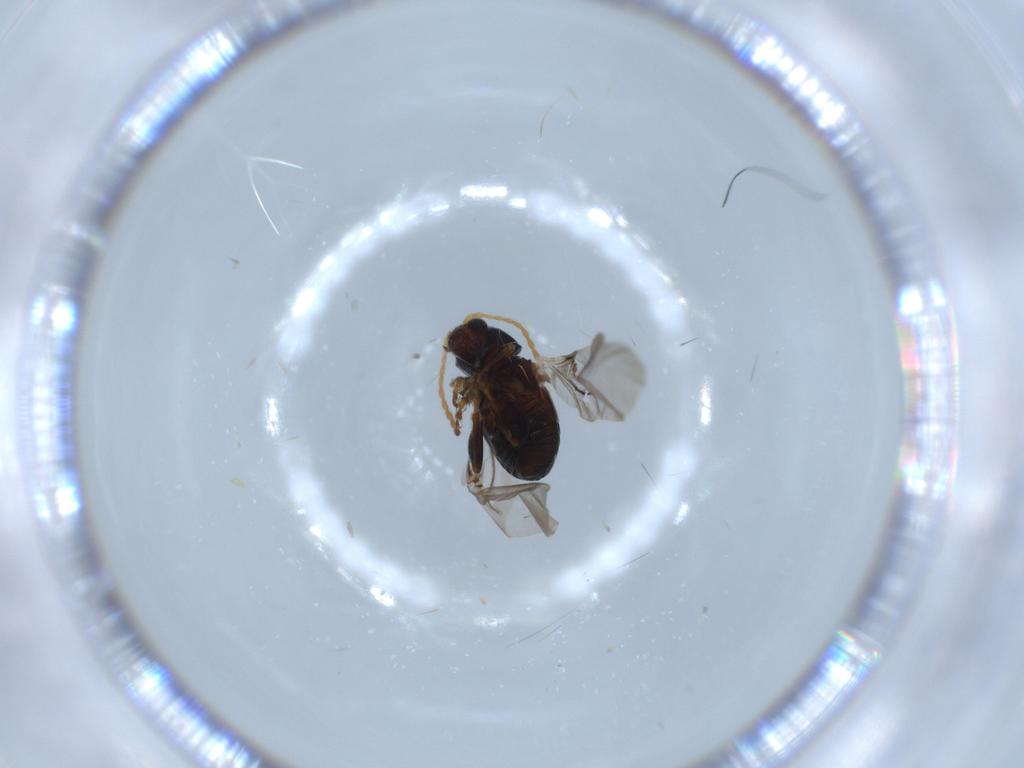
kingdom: Animalia
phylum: Arthropoda
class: Insecta
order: Coleoptera
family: Chrysomelidae
